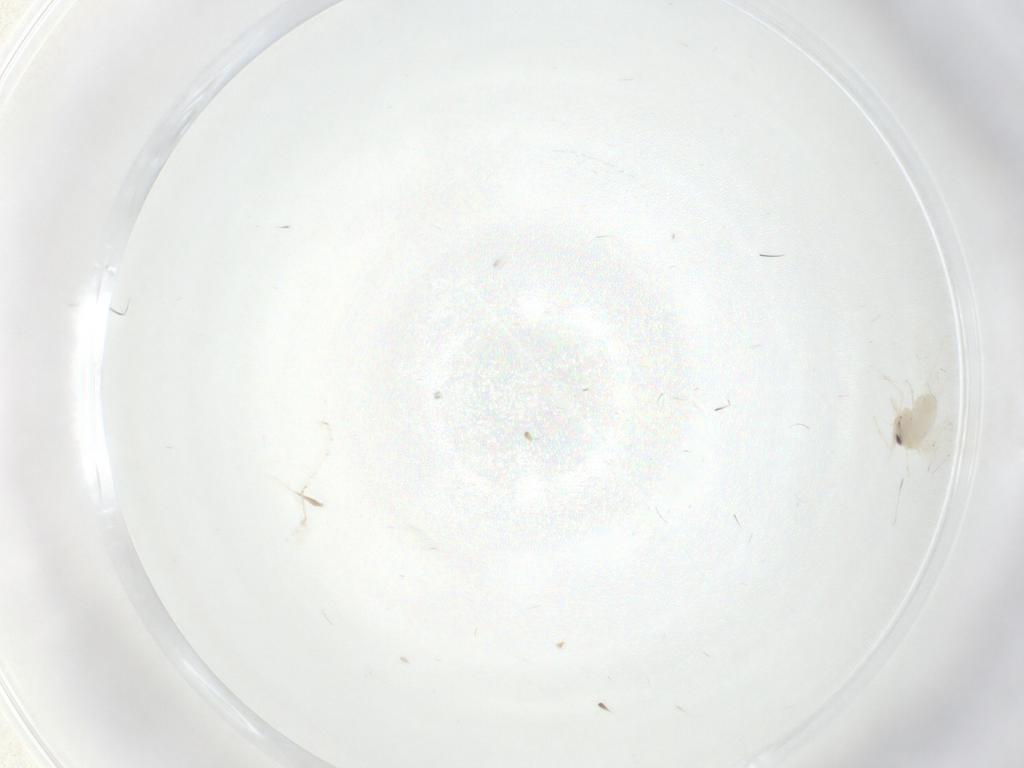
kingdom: Animalia
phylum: Arthropoda
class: Insecta
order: Hemiptera
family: Aleyrodidae
